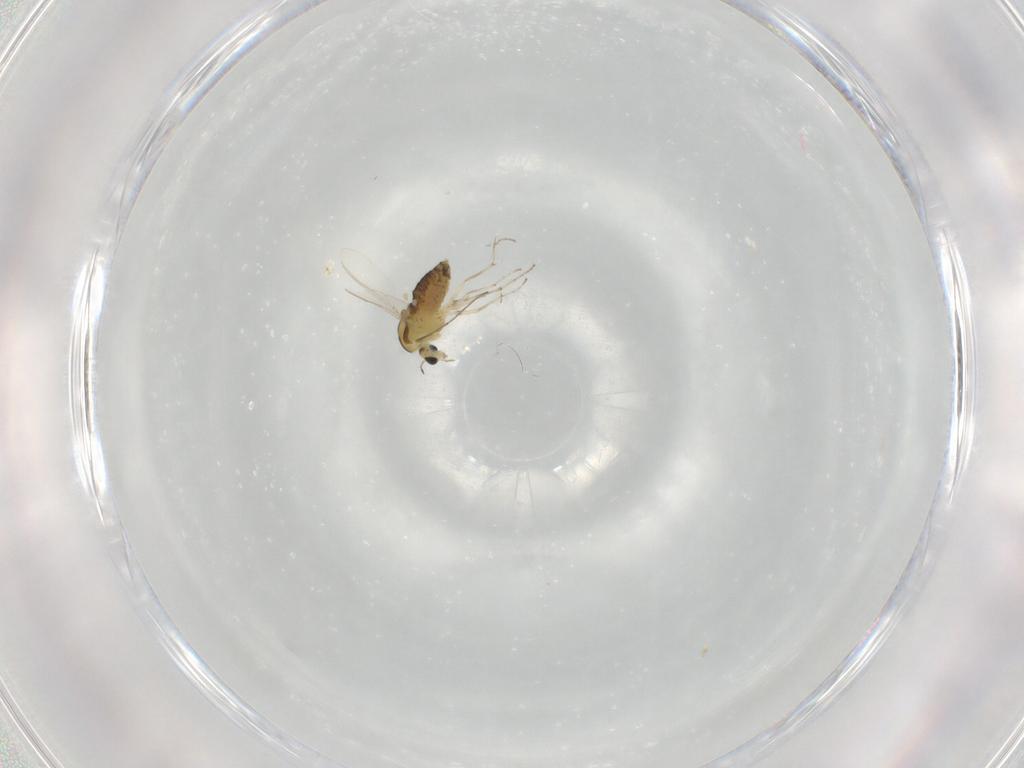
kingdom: Animalia
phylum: Arthropoda
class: Insecta
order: Diptera
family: Chironomidae
